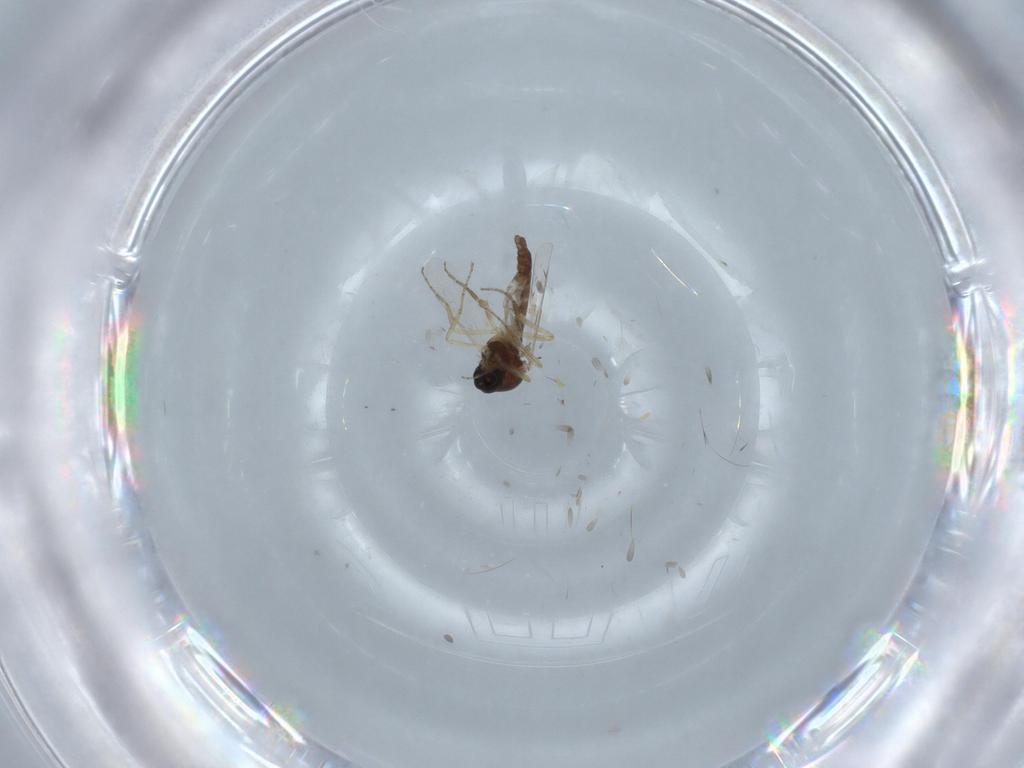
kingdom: Animalia
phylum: Arthropoda
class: Insecta
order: Diptera
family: Ceratopogonidae
